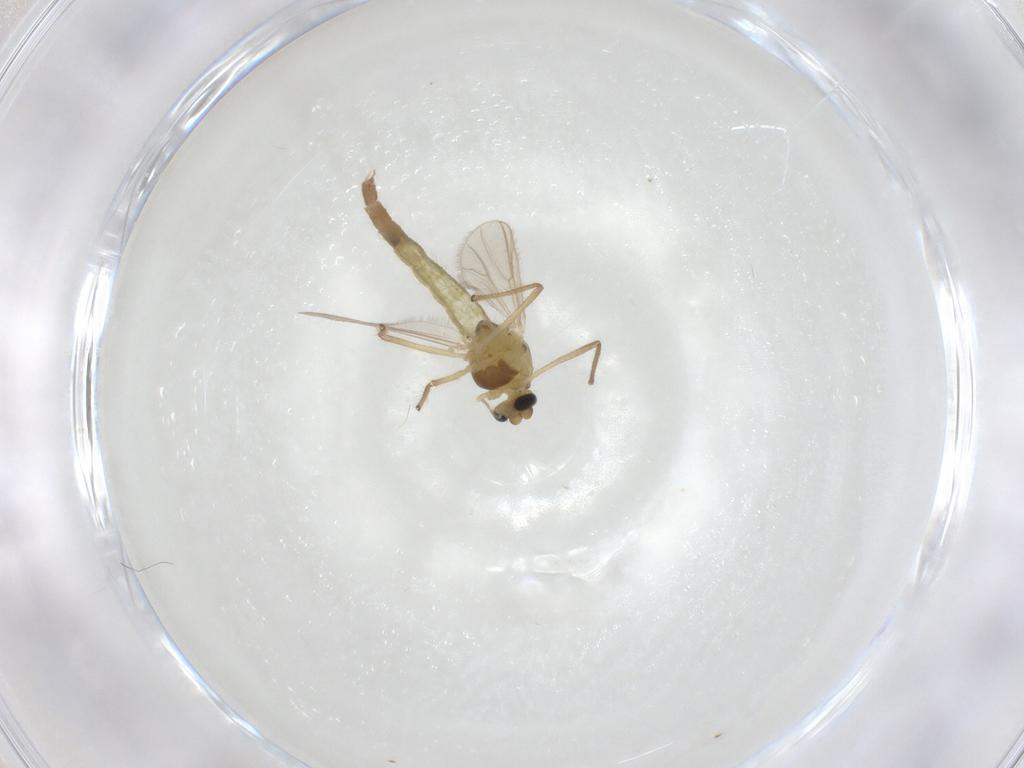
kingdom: Animalia
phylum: Arthropoda
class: Insecta
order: Diptera
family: Chironomidae
